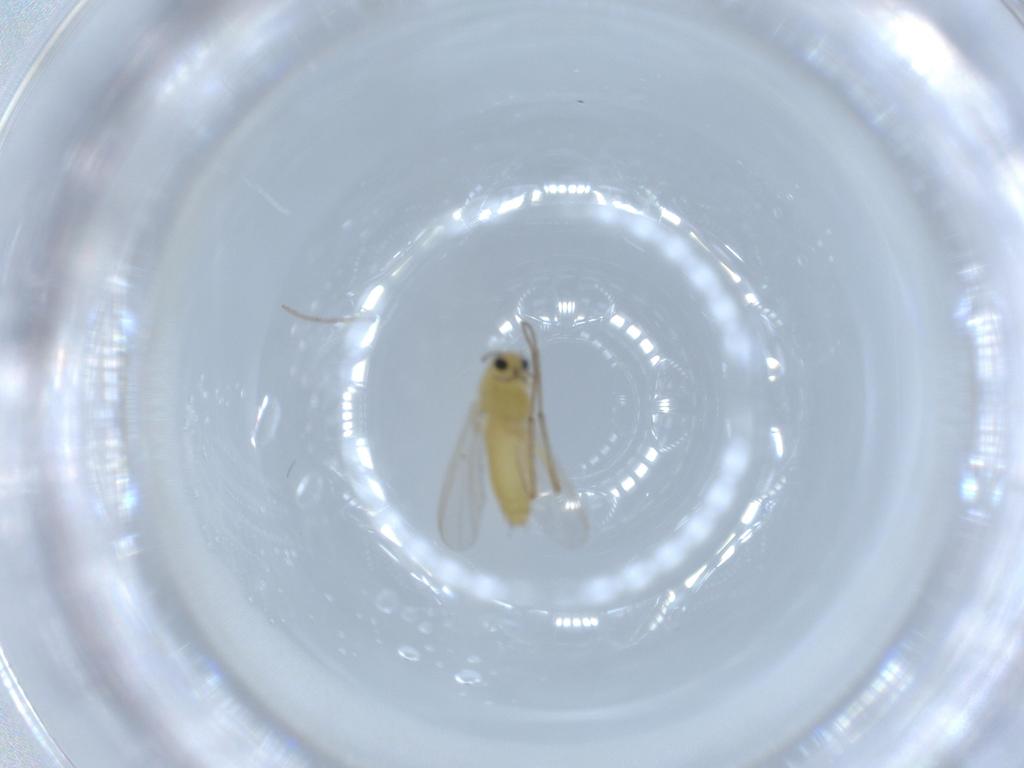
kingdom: Animalia
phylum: Arthropoda
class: Insecta
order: Diptera
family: Chironomidae
